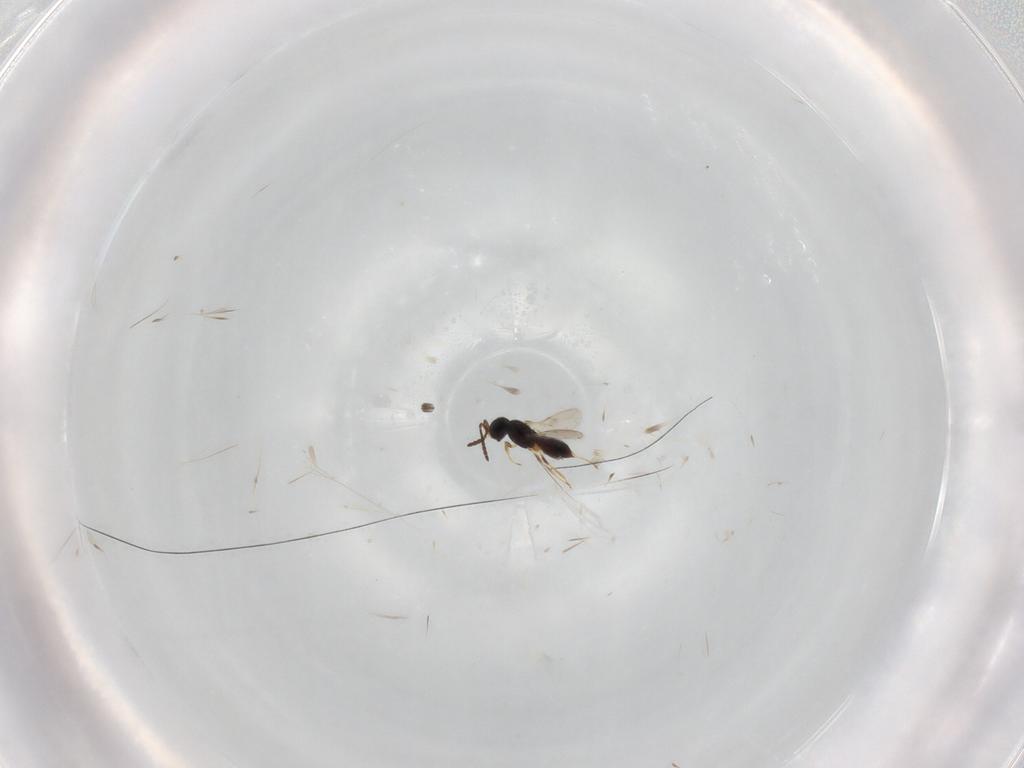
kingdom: Animalia
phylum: Arthropoda
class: Insecta
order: Hymenoptera
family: Scelionidae
